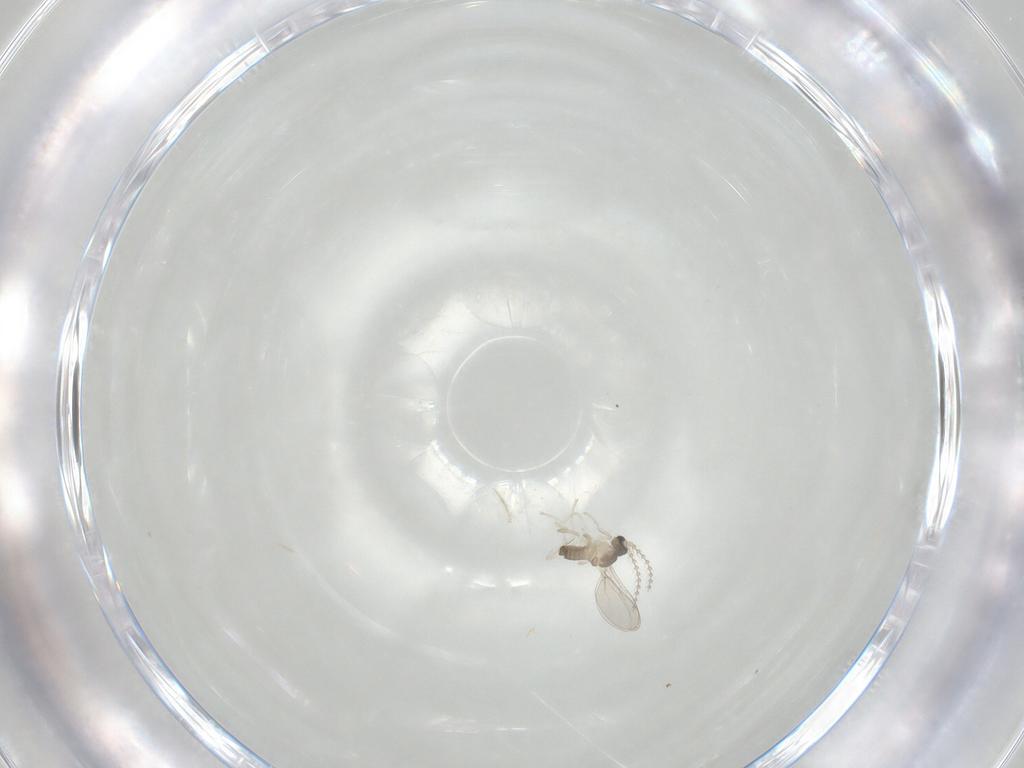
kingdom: Animalia
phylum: Arthropoda
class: Insecta
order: Diptera
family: Cecidomyiidae
